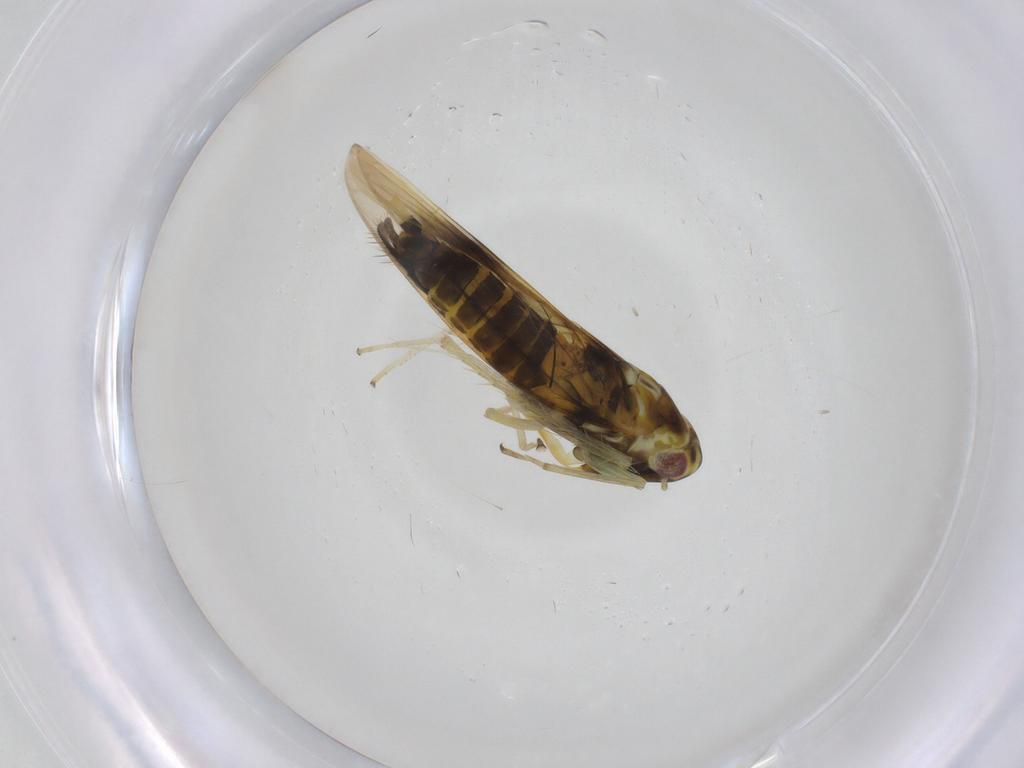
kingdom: Animalia
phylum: Arthropoda
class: Insecta
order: Hemiptera
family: Cicadellidae
